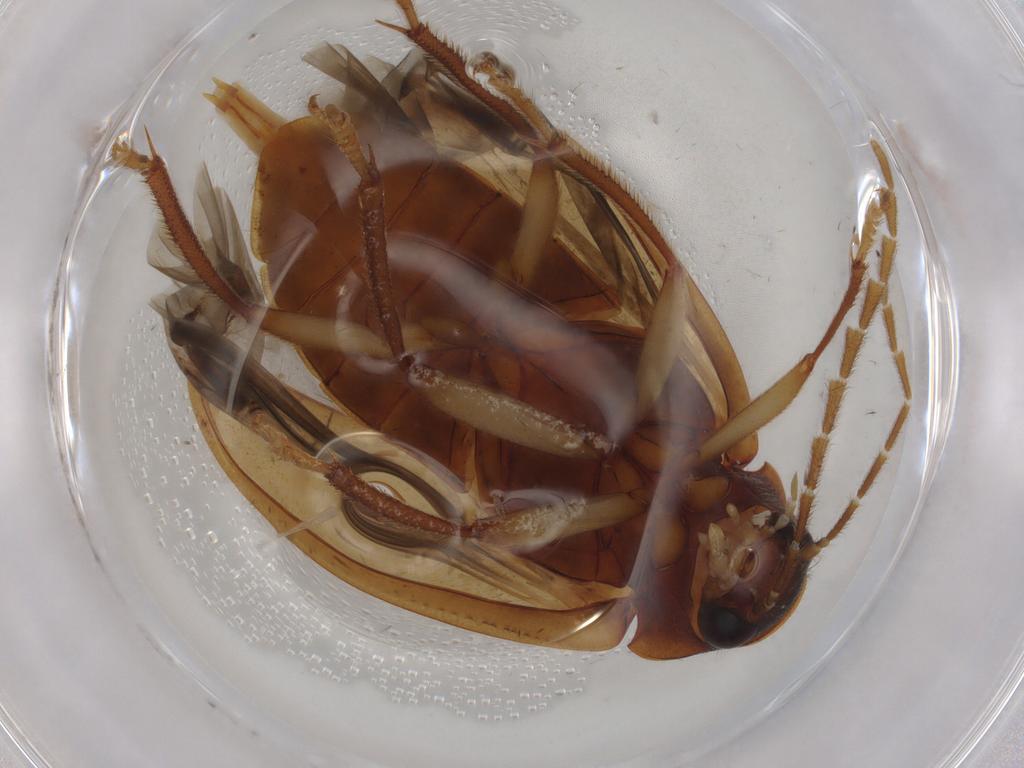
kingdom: Animalia
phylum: Arthropoda
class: Insecta
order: Coleoptera
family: Ptilodactylidae
